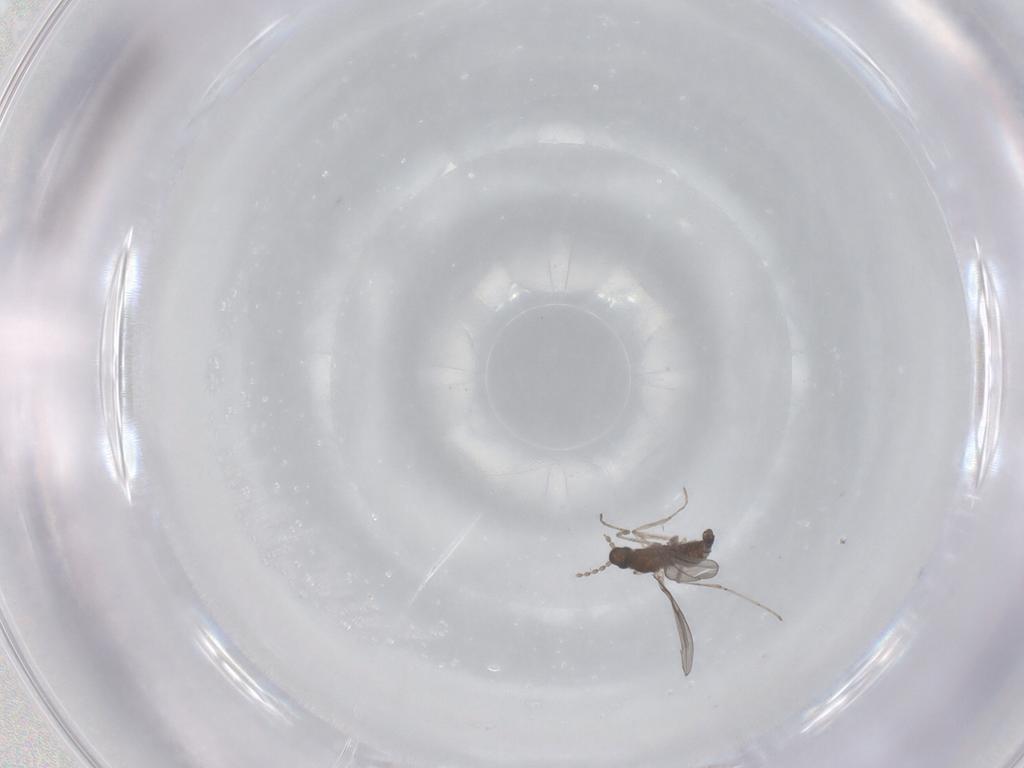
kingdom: Animalia
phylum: Arthropoda
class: Insecta
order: Diptera
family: Cecidomyiidae
